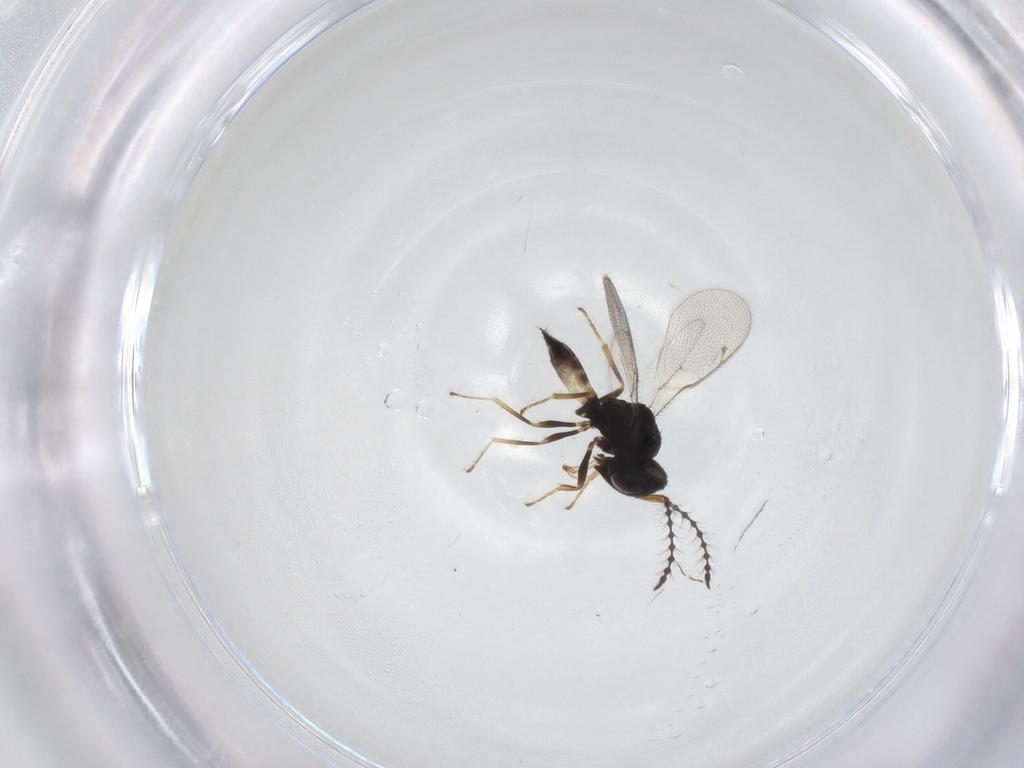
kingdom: Animalia
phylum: Arthropoda
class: Insecta
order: Hymenoptera
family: Pteromalidae
